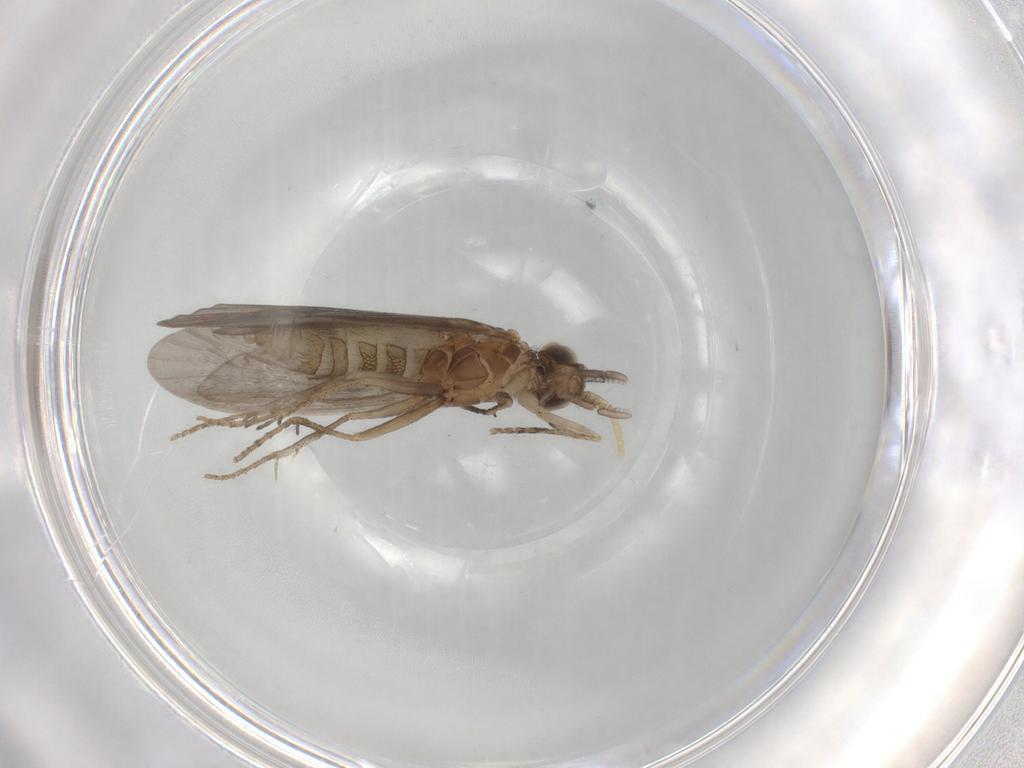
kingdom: Animalia
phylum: Arthropoda
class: Insecta
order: Trichoptera
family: Helicopsychidae
